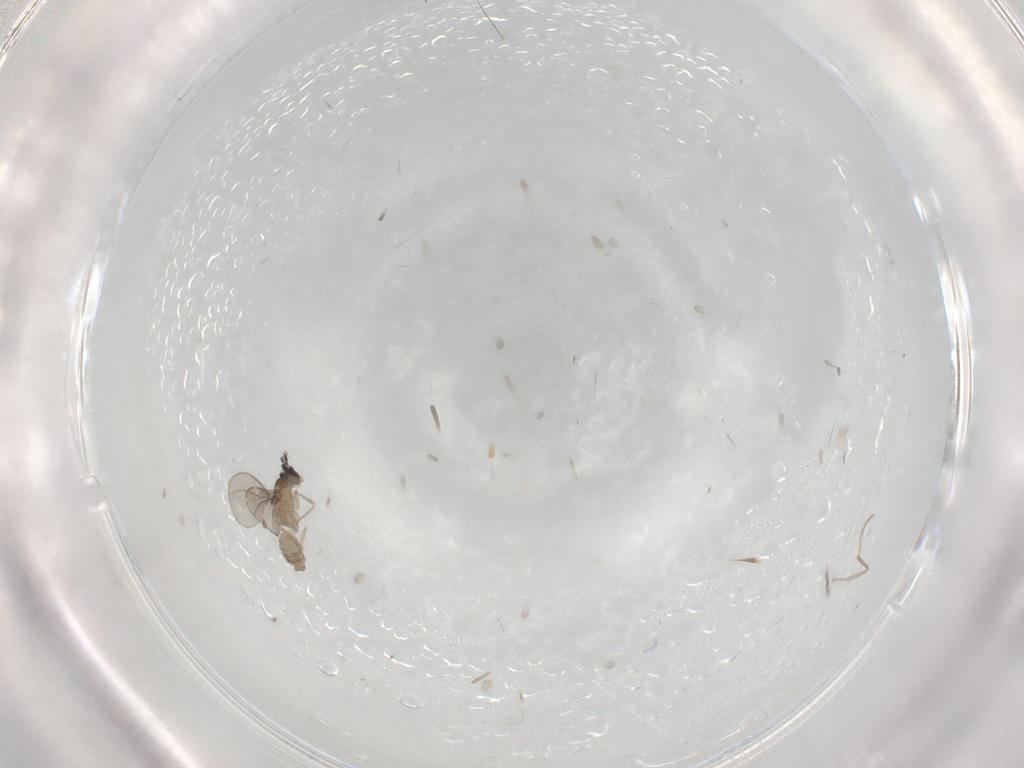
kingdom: Animalia
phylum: Arthropoda
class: Insecta
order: Diptera
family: Cecidomyiidae
